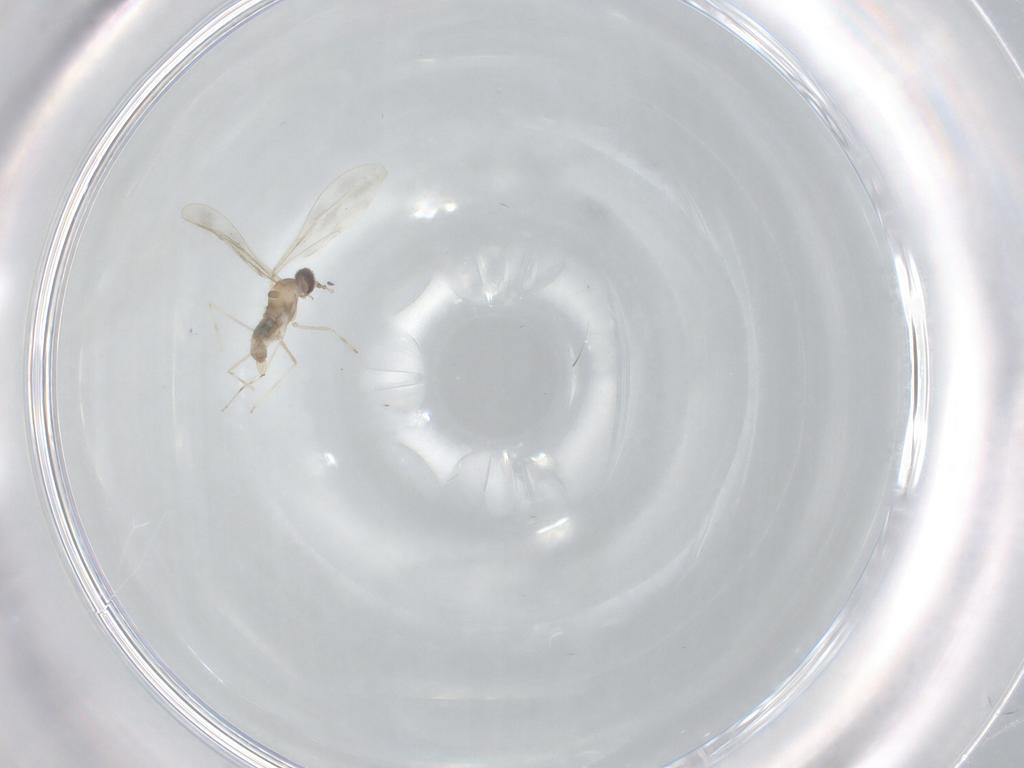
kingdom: Animalia
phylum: Arthropoda
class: Insecta
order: Diptera
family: Cecidomyiidae
